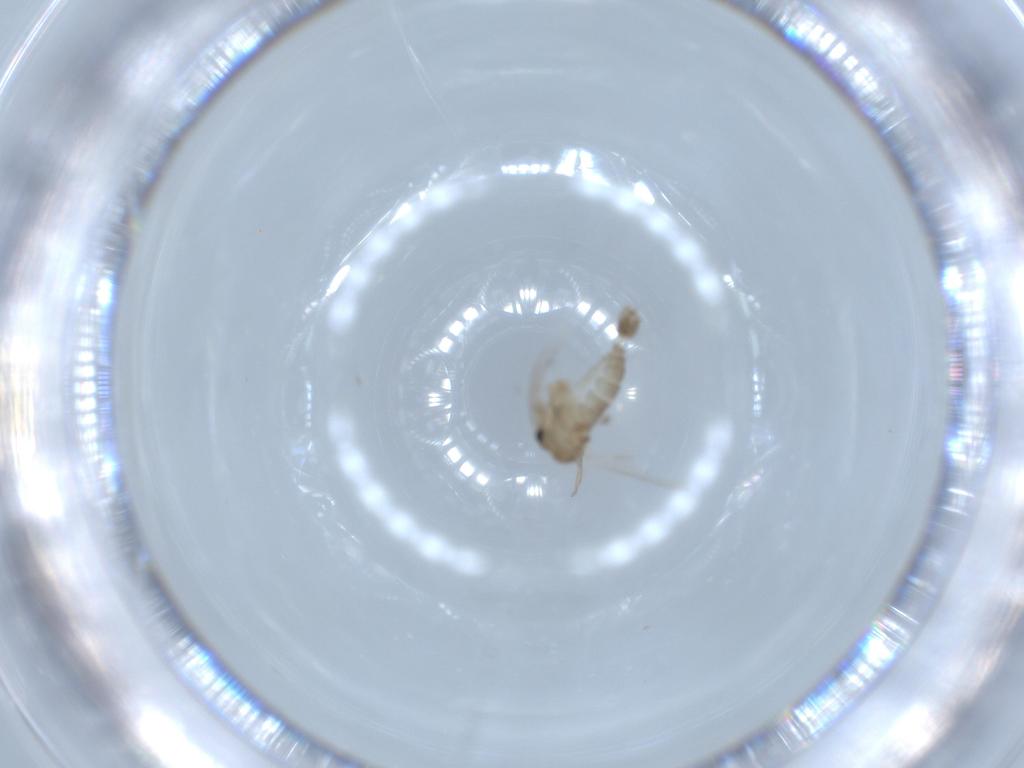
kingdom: Animalia
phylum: Arthropoda
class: Insecta
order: Diptera
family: Psychodidae
